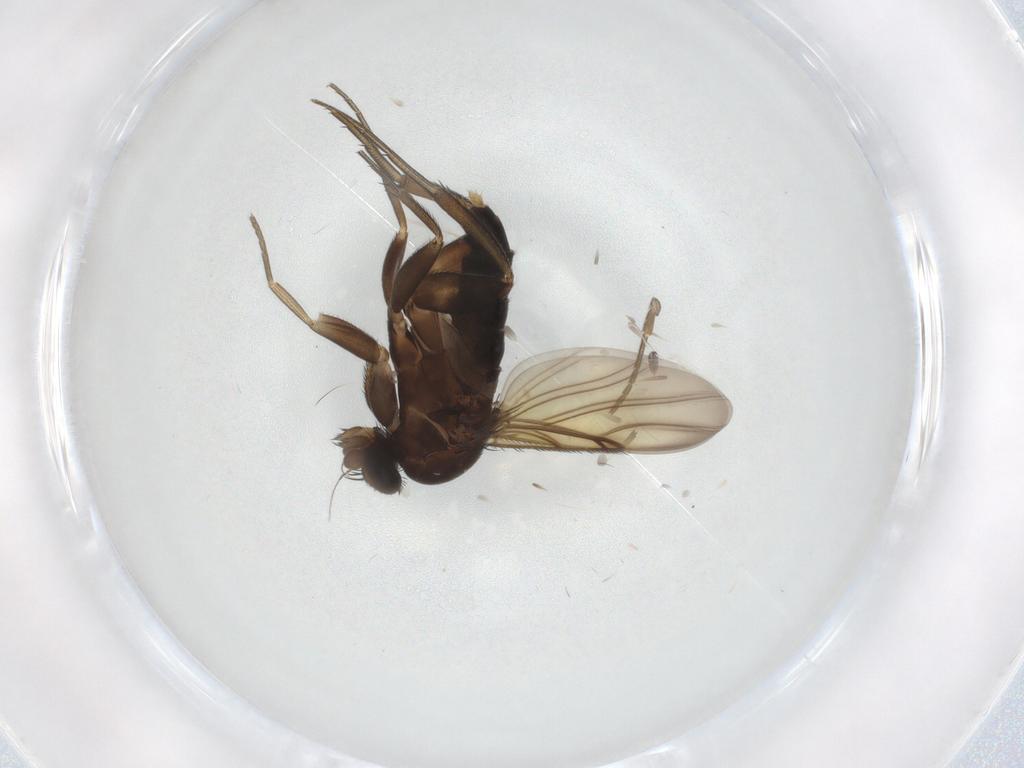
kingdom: Animalia
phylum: Arthropoda
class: Insecta
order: Diptera
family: Phoridae
